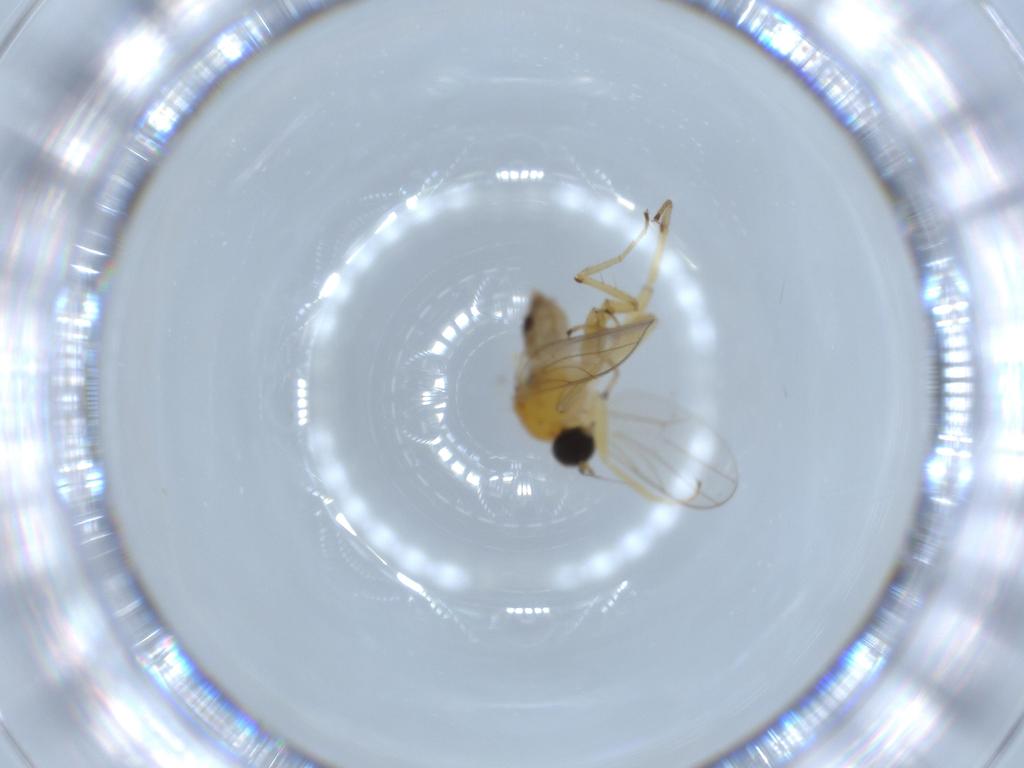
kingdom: Animalia
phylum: Arthropoda
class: Insecta
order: Diptera
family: Hybotidae
